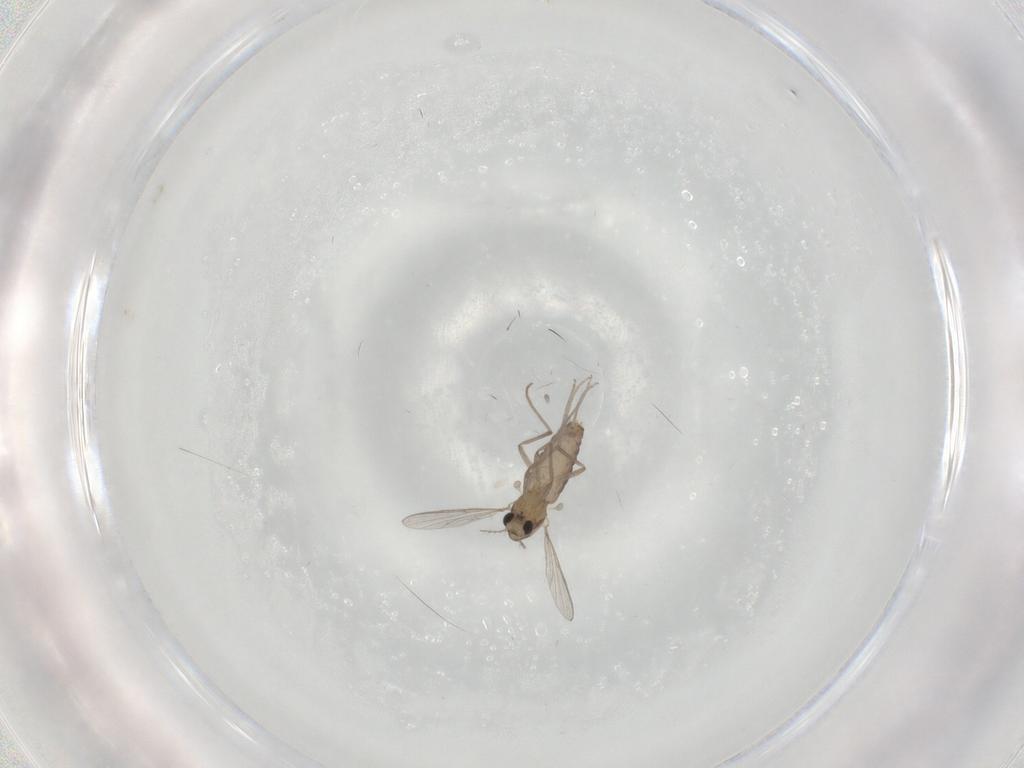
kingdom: Animalia
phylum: Arthropoda
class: Insecta
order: Diptera
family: Chironomidae
